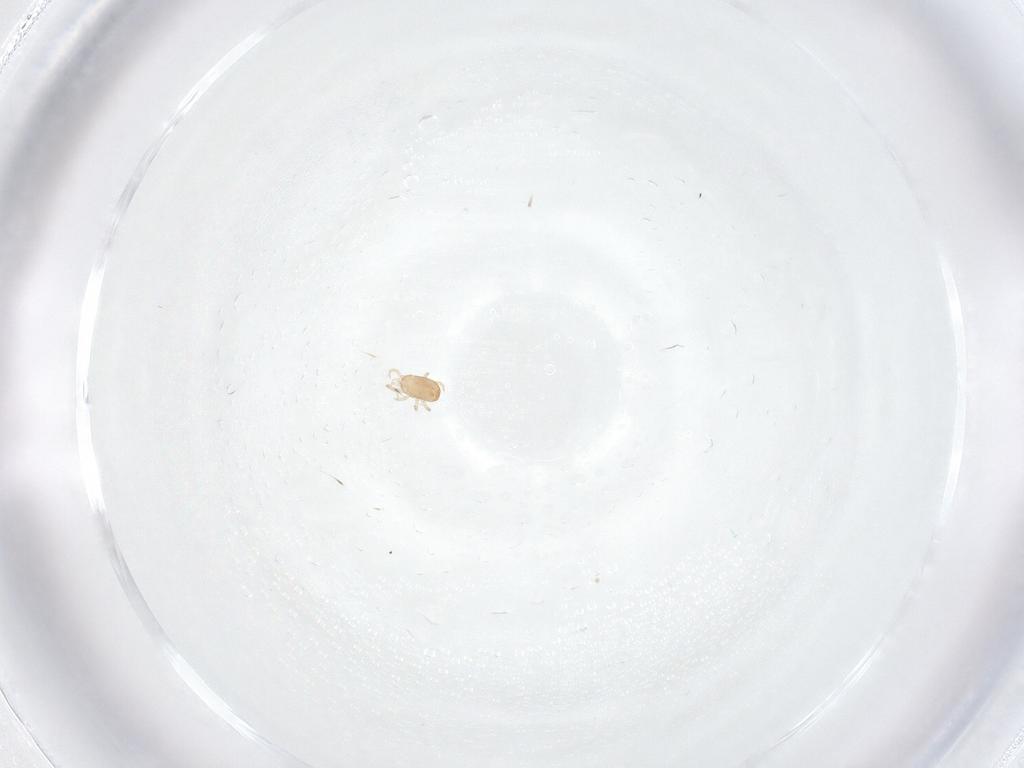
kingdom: Animalia
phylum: Arthropoda
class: Arachnida
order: Mesostigmata
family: Ascidae
